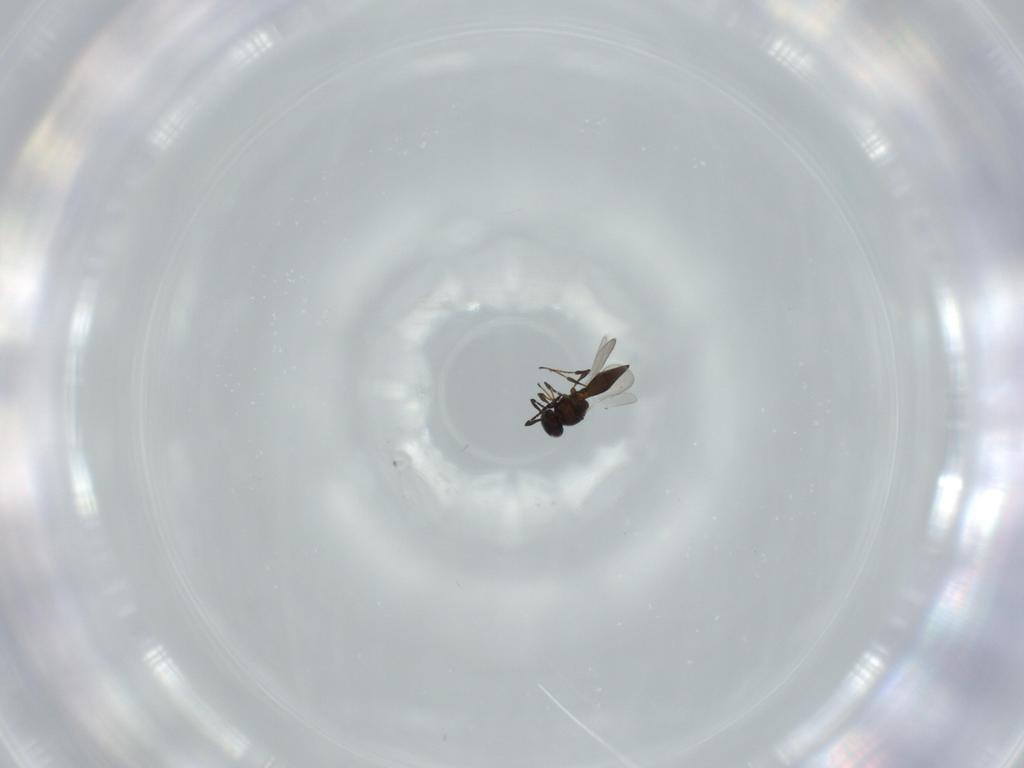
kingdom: Animalia
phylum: Arthropoda
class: Insecta
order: Diptera
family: Mythicomyiidae
